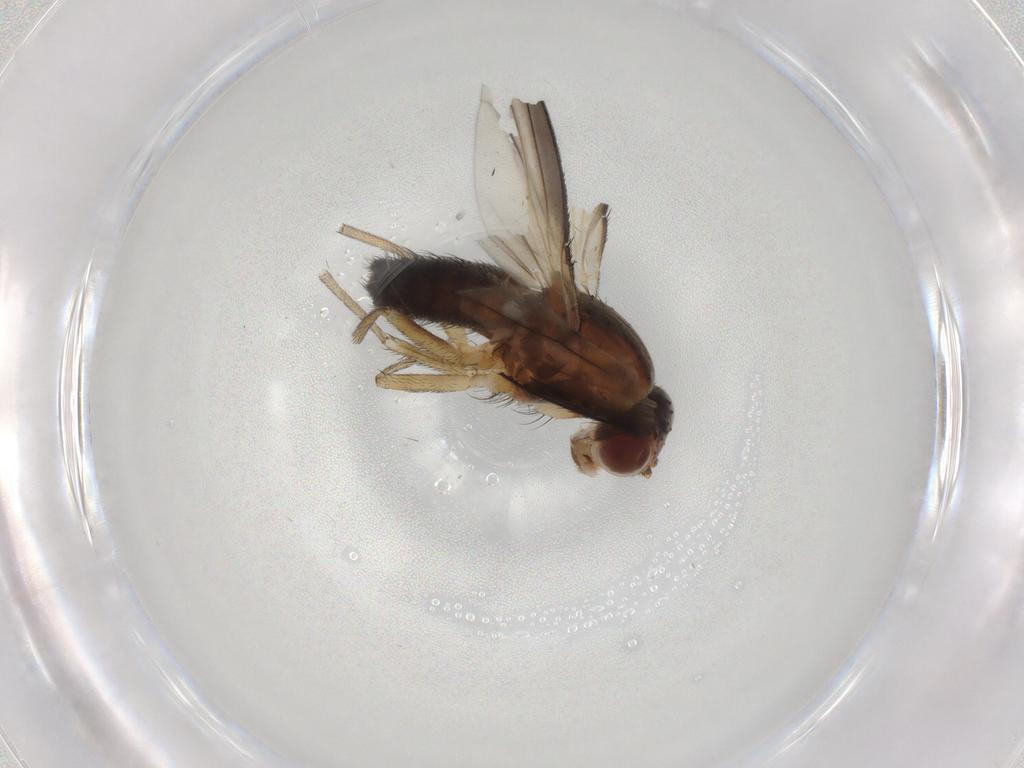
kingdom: Animalia
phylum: Arthropoda
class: Insecta
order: Diptera
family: Heleomyzidae
